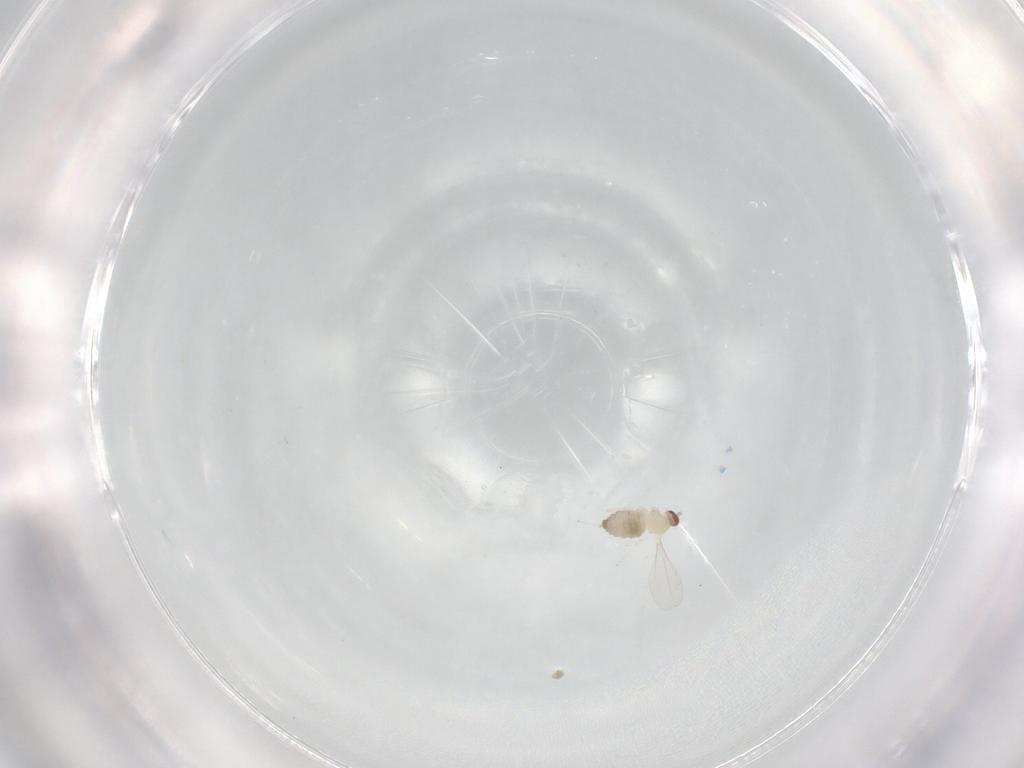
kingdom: Animalia
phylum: Arthropoda
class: Insecta
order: Diptera
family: Cecidomyiidae
